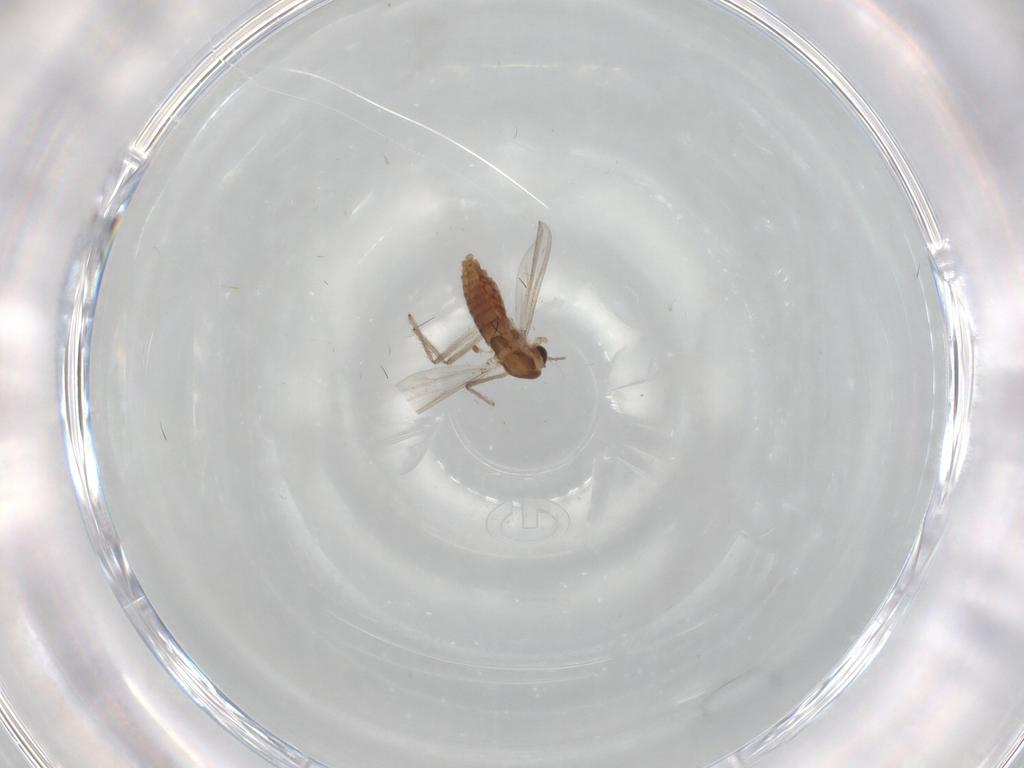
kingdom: Animalia
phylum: Arthropoda
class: Insecta
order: Diptera
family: Chironomidae
